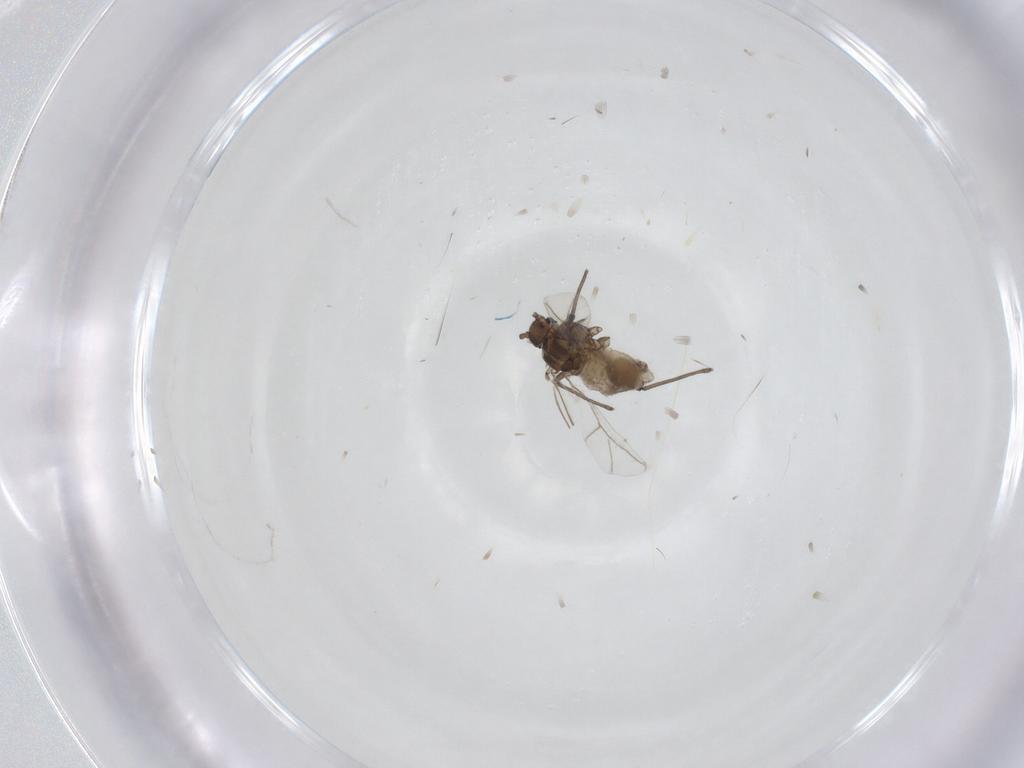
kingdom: Animalia
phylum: Arthropoda
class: Insecta
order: Hemiptera
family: Aphididae
